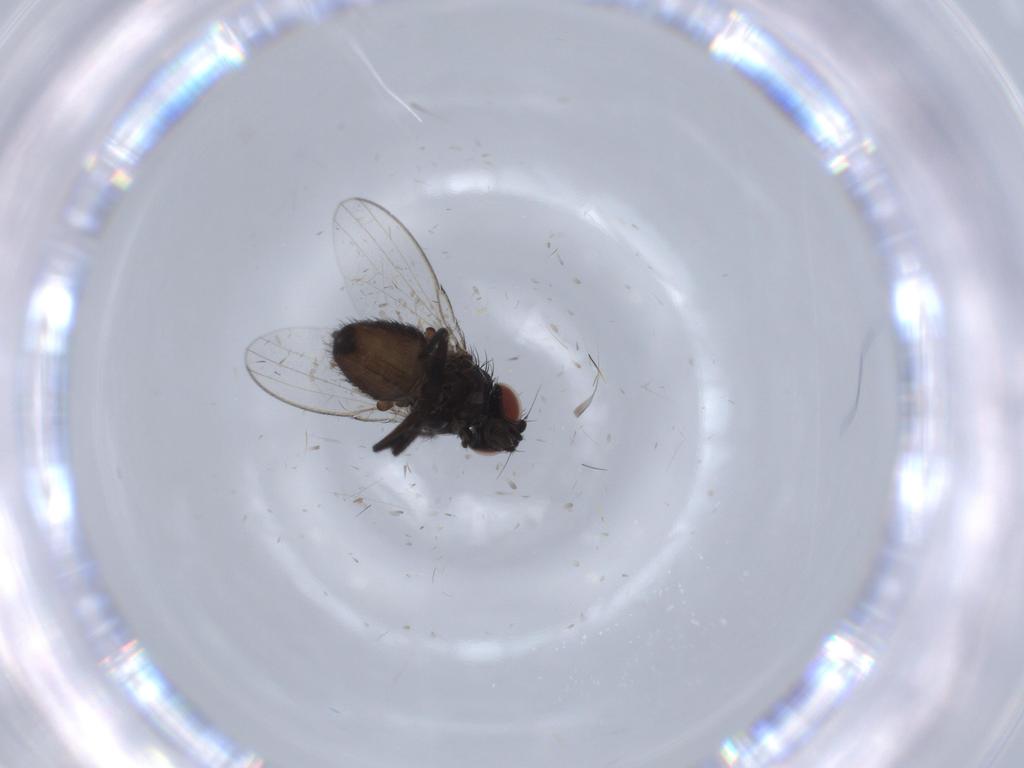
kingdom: Animalia
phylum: Arthropoda
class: Insecta
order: Diptera
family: Milichiidae
